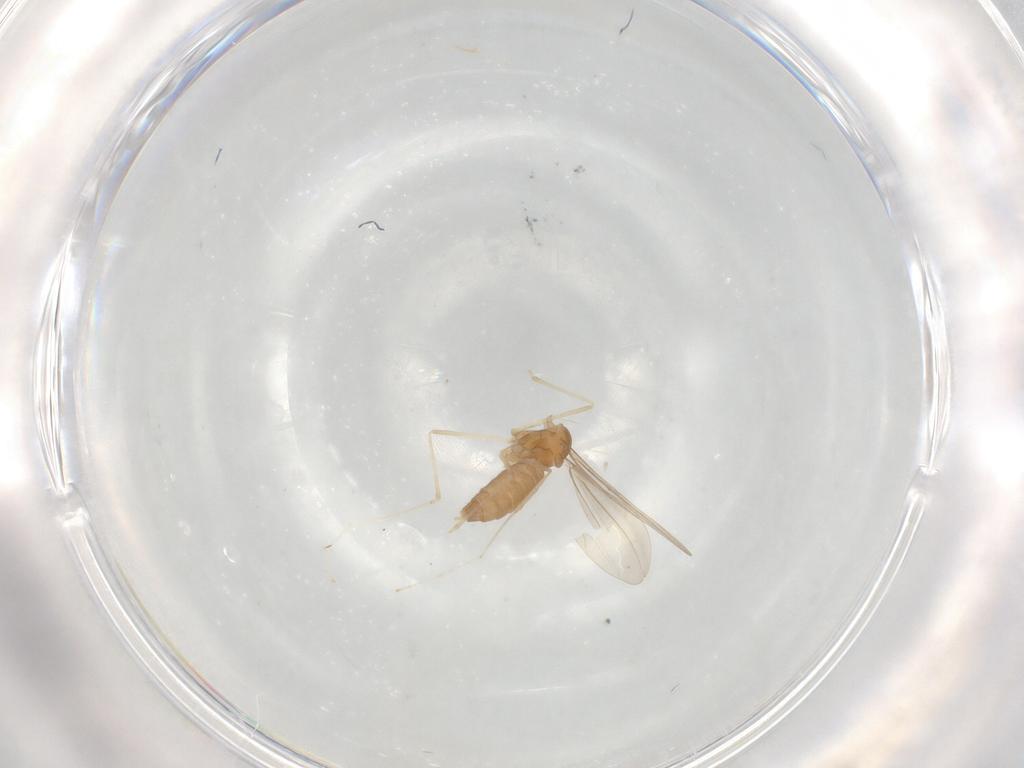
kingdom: Animalia
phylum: Arthropoda
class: Insecta
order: Diptera
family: Cecidomyiidae
